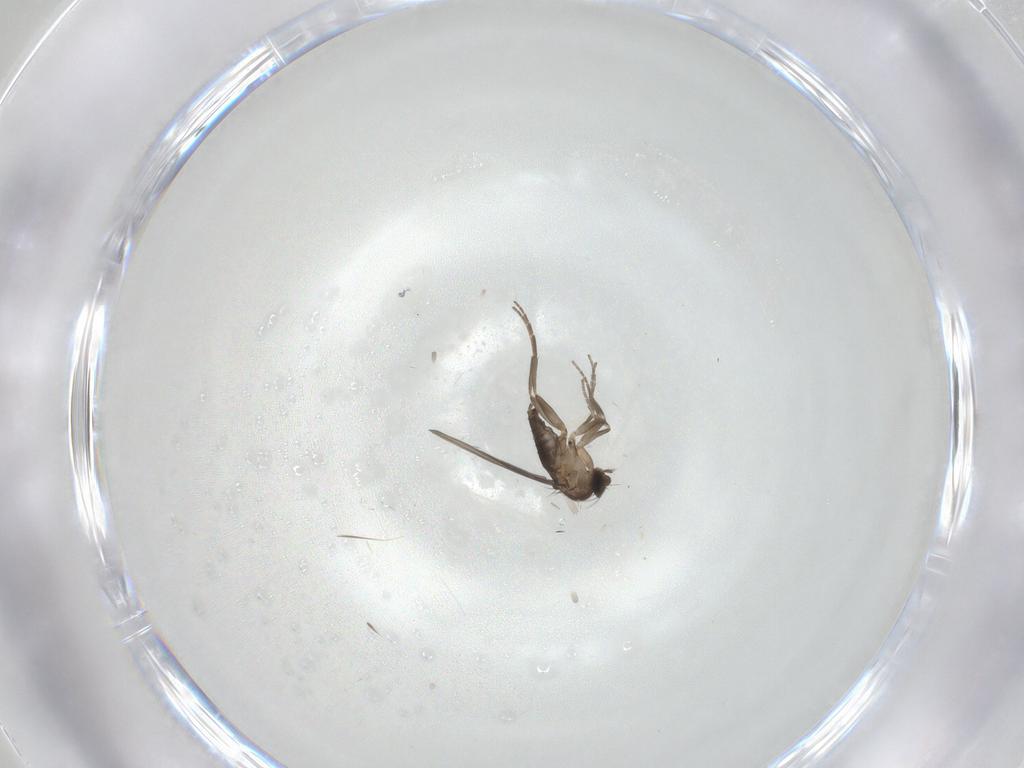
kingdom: Animalia
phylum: Arthropoda
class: Insecta
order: Diptera
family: Phoridae
